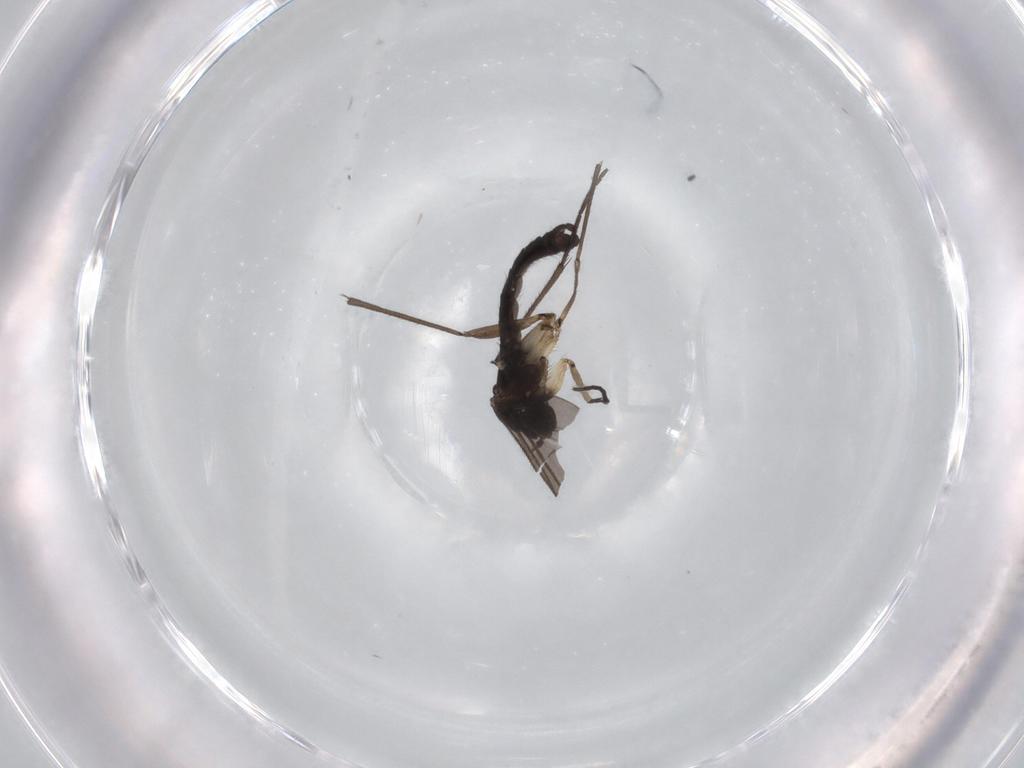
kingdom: Animalia
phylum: Arthropoda
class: Insecta
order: Diptera
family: Sciaridae
